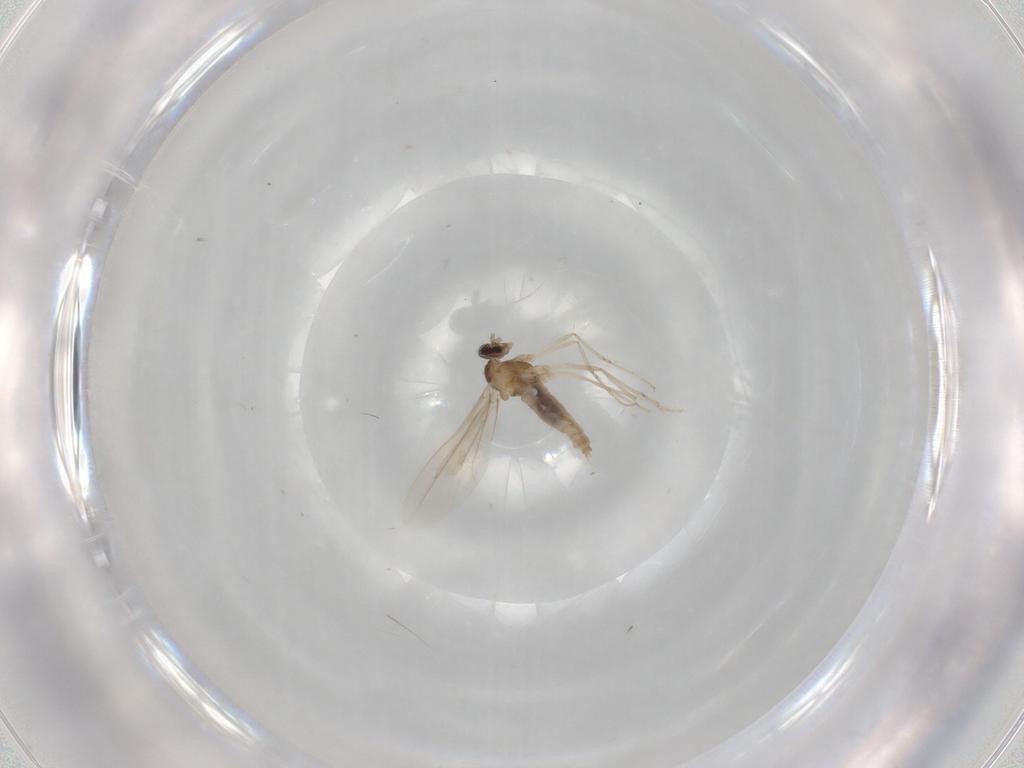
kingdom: Animalia
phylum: Arthropoda
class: Insecta
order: Diptera
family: Cecidomyiidae
